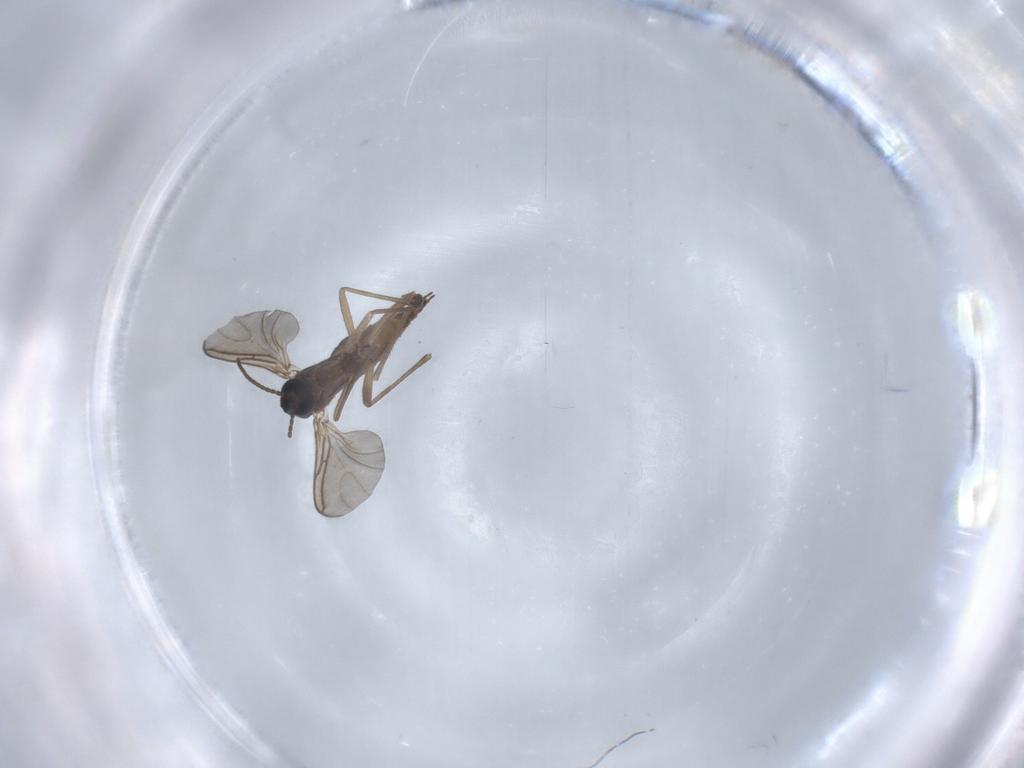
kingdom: Animalia
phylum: Arthropoda
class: Insecta
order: Diptera
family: Sciaridae
